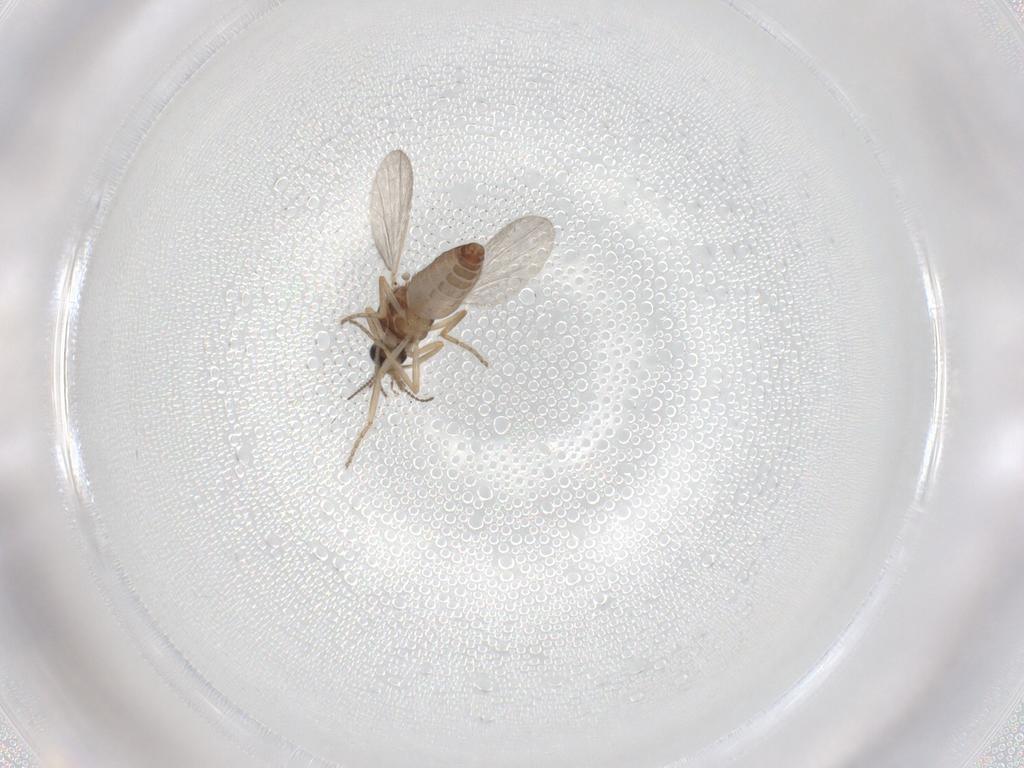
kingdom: Animalia
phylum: Arthropoda
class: Insecta
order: Diptera
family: Ceratopogonidae
